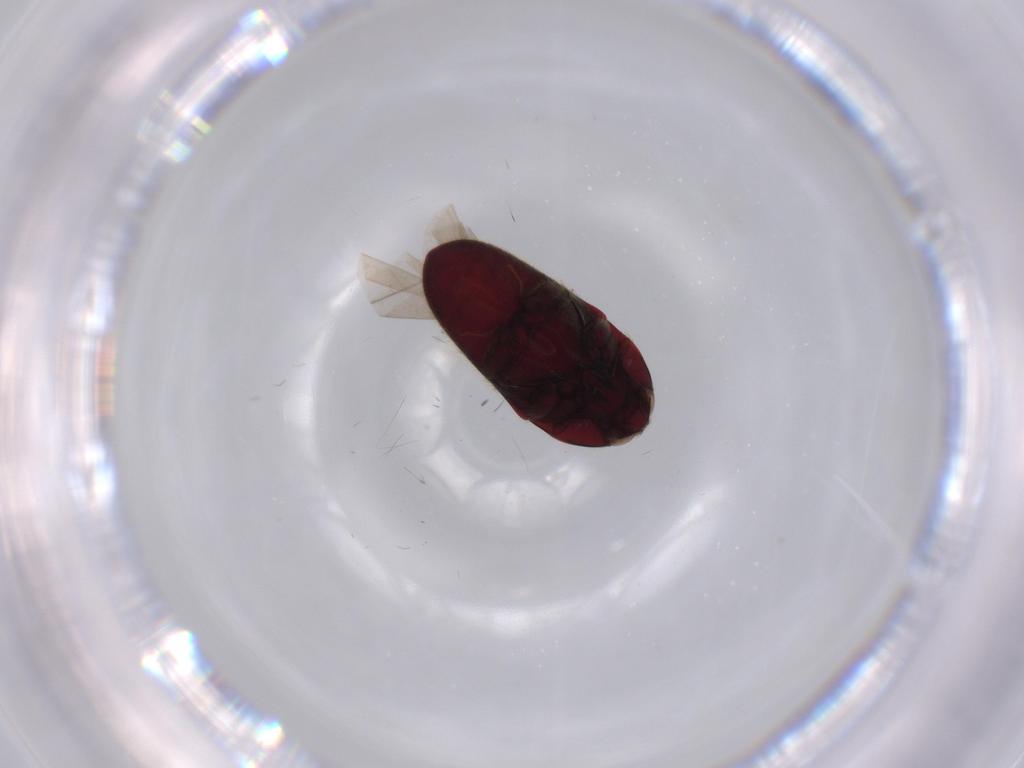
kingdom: Animalia
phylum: Arthropoda
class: Insecta
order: Coleoptera
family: Throscidae
